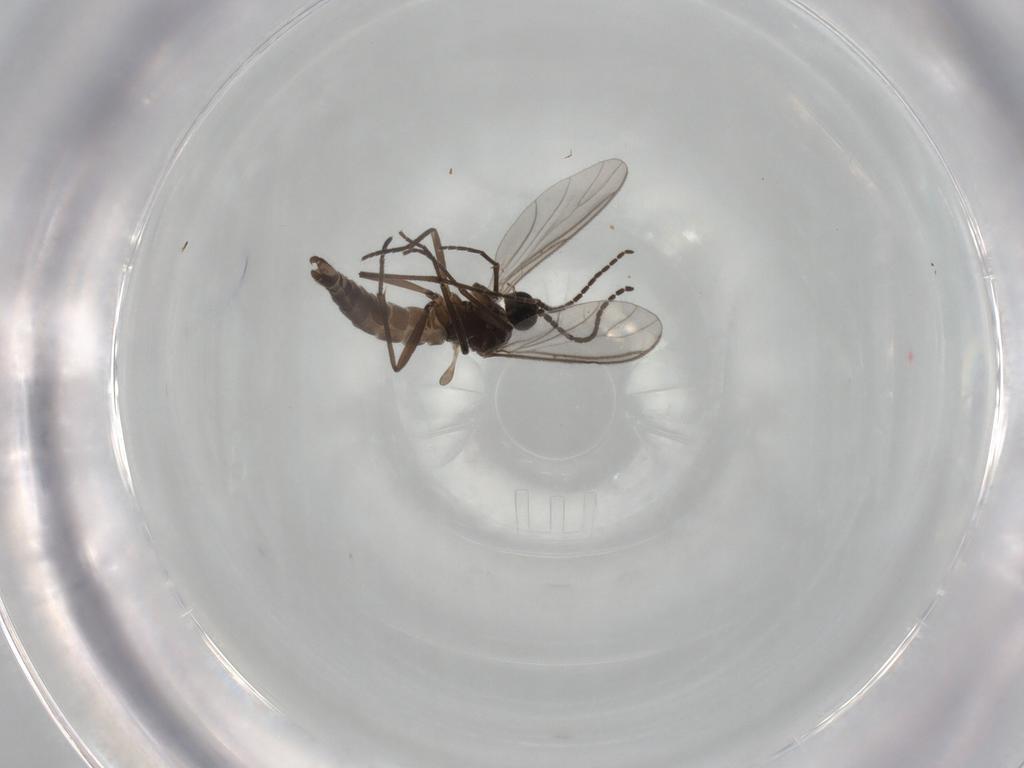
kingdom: Animalia
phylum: Arthropoda
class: Insecta
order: Diptera
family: Sciaridae
